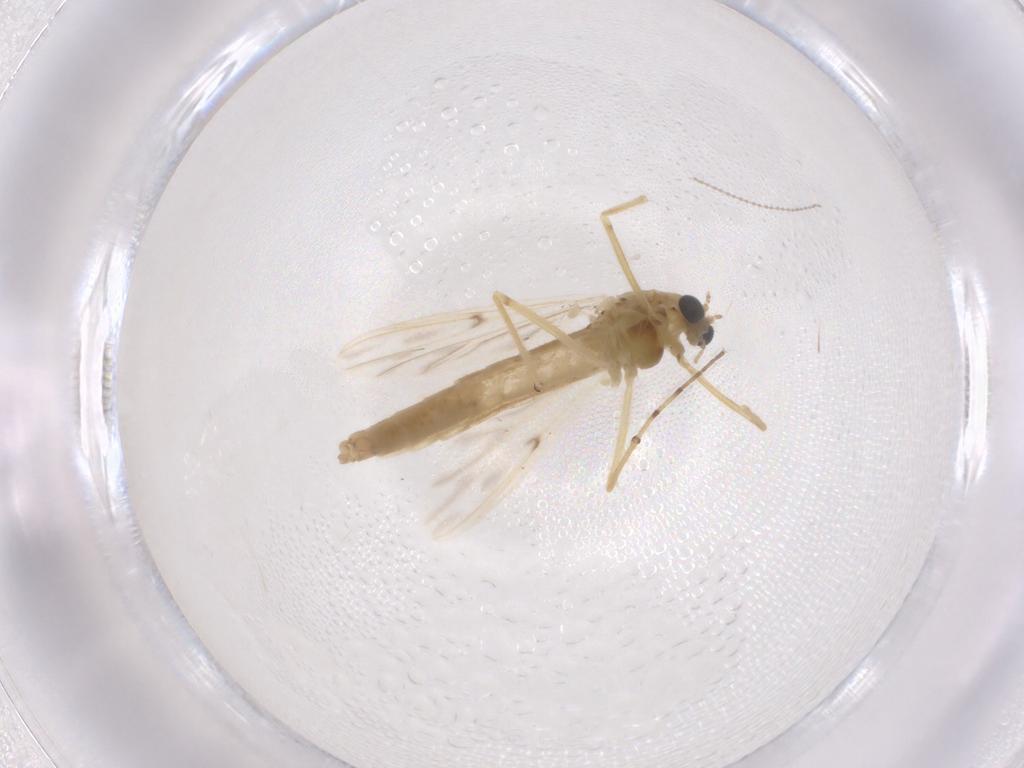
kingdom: Animalia
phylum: Arthropoda
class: Insecta
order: Diptera
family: Chironomidae
